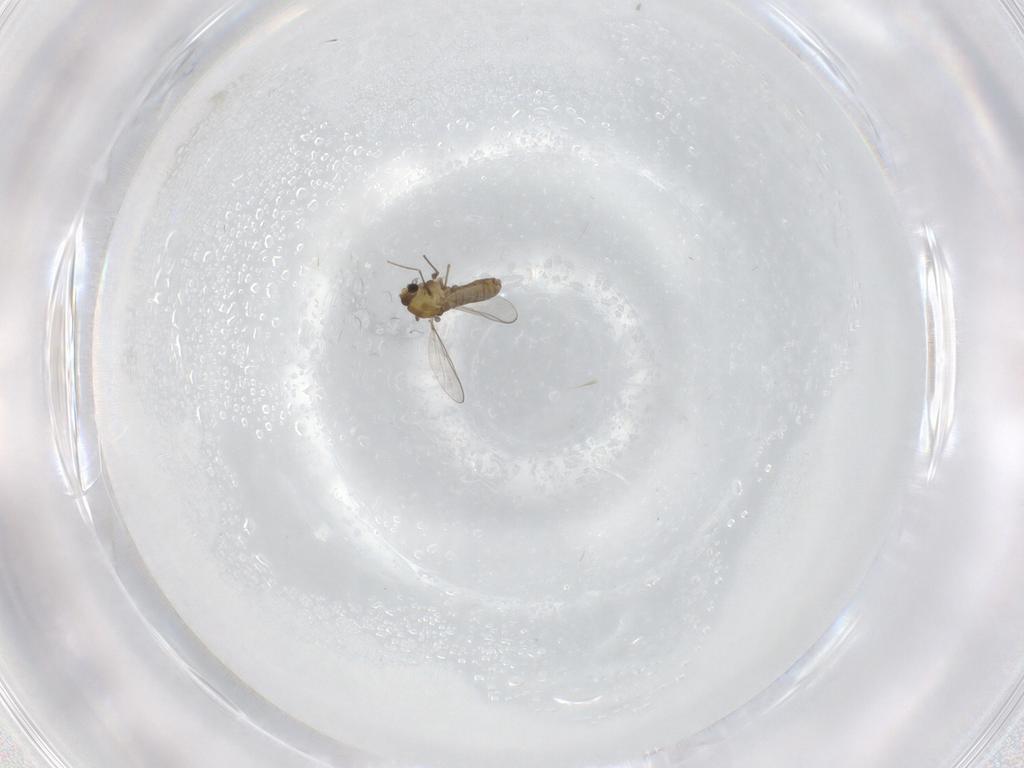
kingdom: Animalia
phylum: Arthropoda
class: Insecta
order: Diptera
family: Chironomidae
